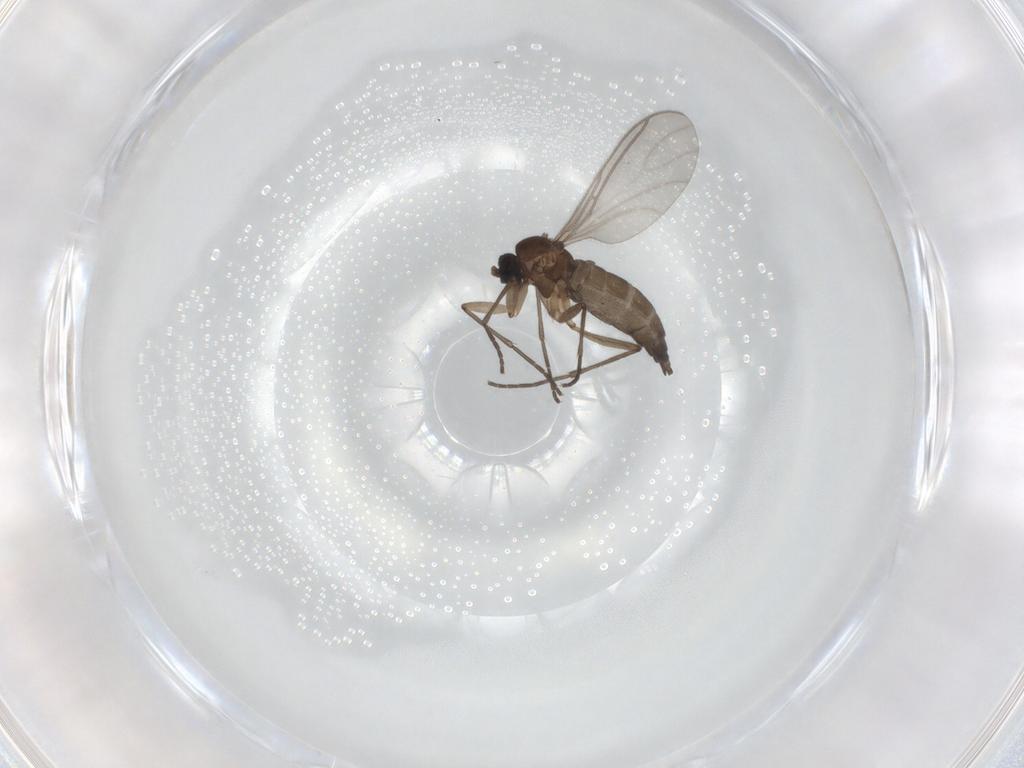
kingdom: Animalia
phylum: Arthropoda
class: Insecta
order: Diptera
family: Sciaridae
